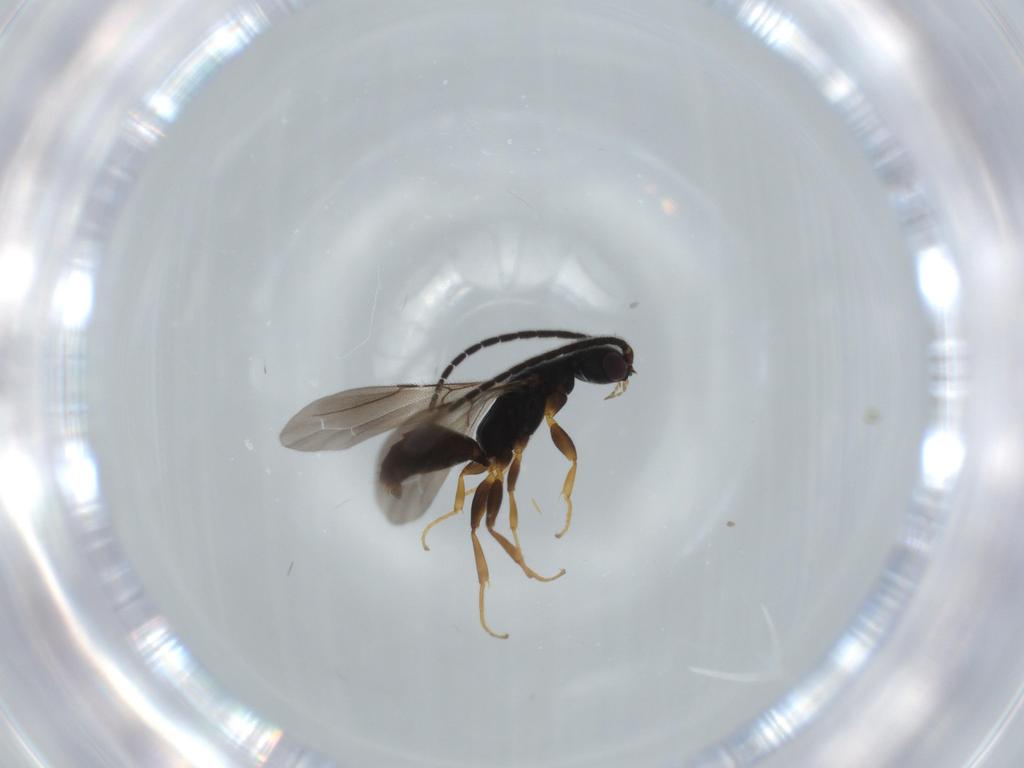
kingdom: Animalia
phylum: Arthropoda
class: Insecta
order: Hymenoptera
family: Bethylidae
